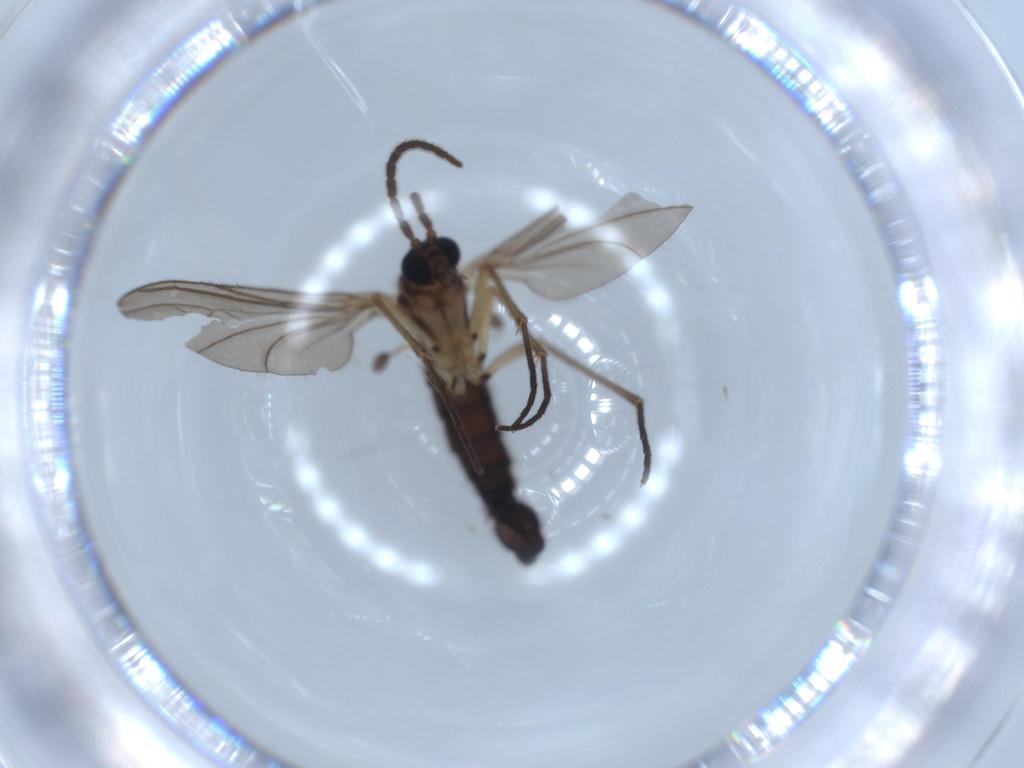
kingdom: Animalia
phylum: Arthropoda
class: Insecta
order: Diptera
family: Sciaridae
